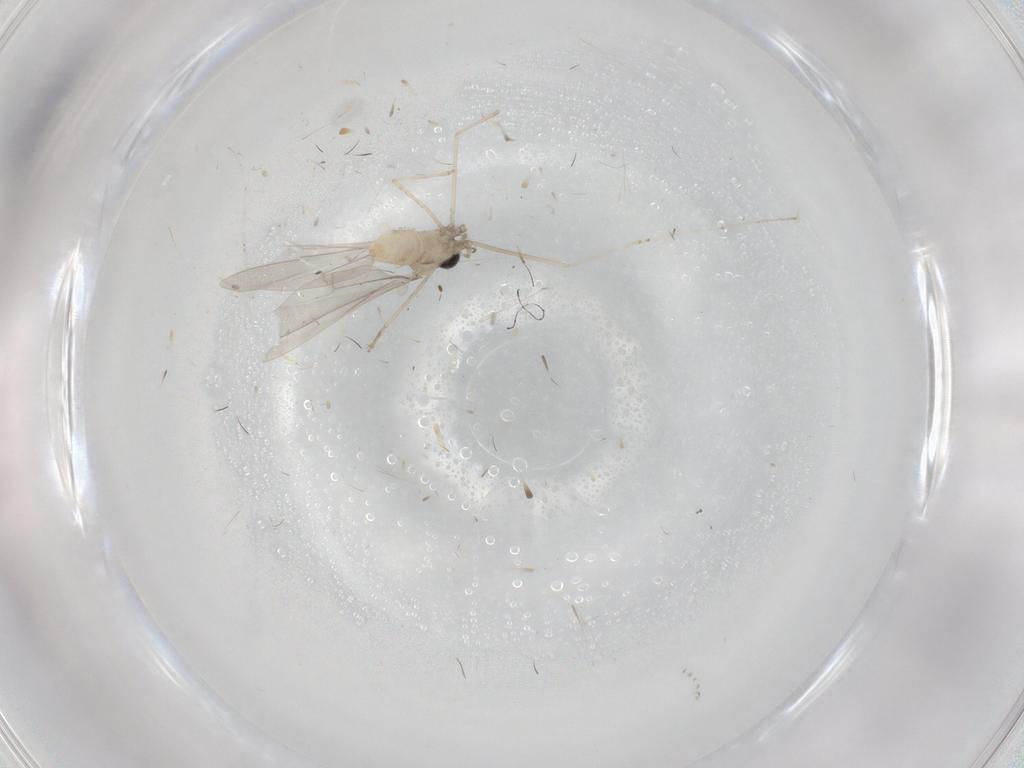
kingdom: Animalia
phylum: Arthropoda
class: Insecta
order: Diptera
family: Cecidomyiidae
